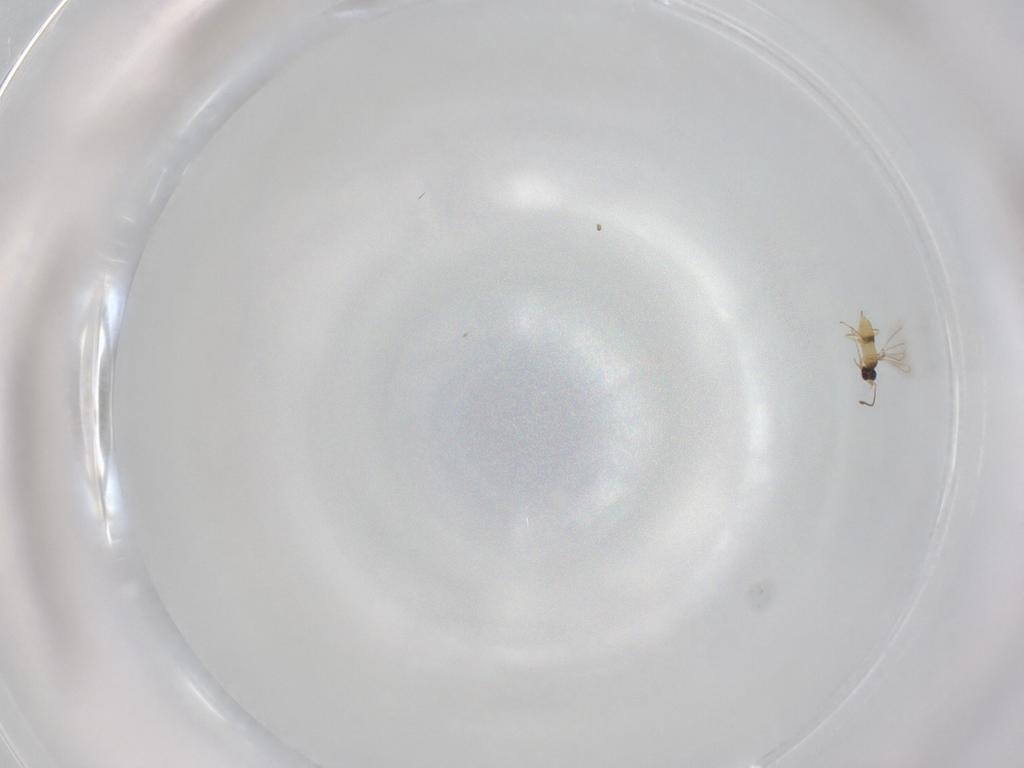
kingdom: Animalia
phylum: Arthropoda
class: Insecta
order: Hymenoptera
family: Mymaridae
